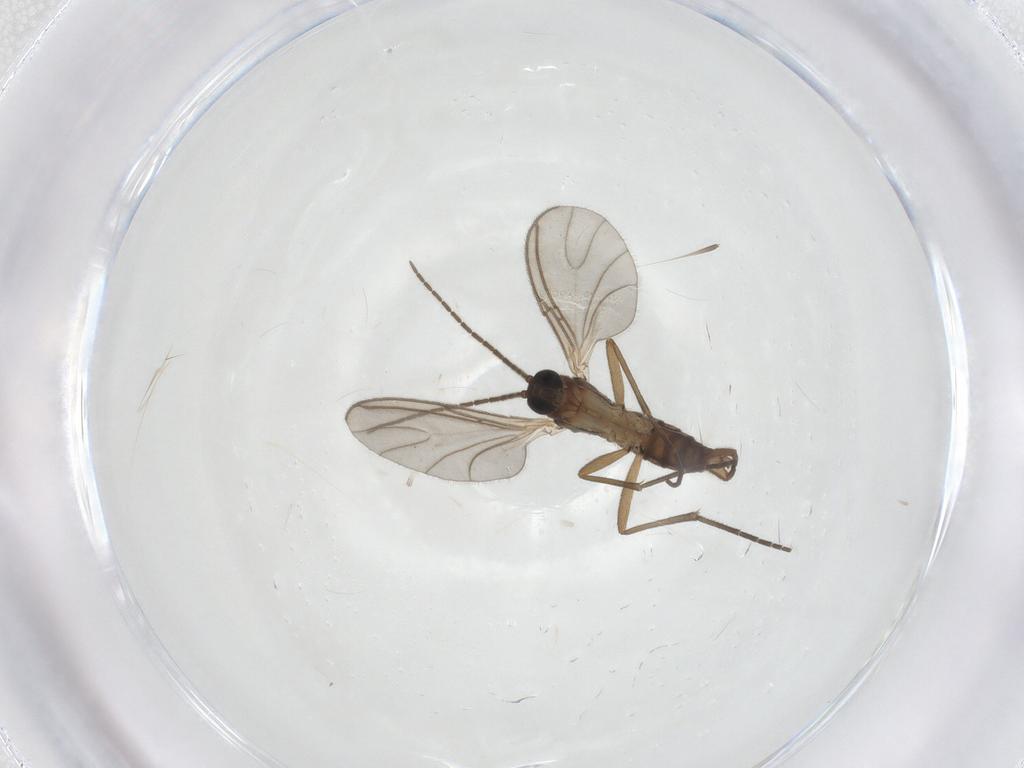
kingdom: Animalia
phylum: Arthropoda
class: Insecta
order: Diptera
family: Sciaridae
